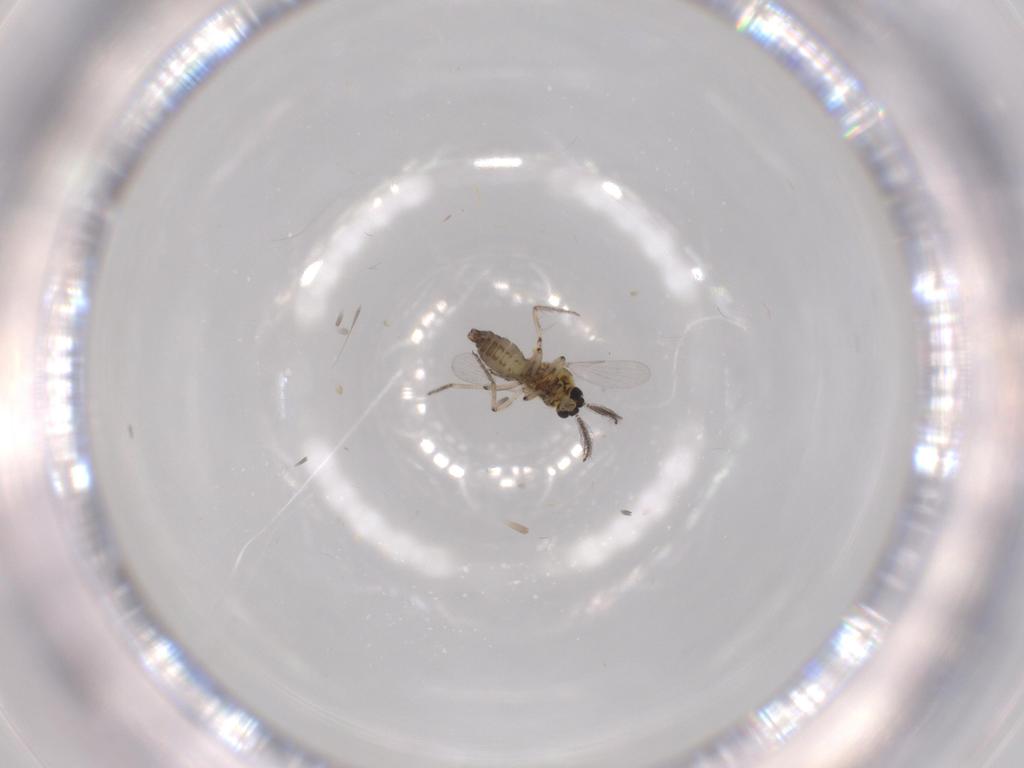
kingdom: Animalia
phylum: Arthropoda
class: Insecta
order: Diptera
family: Ceratopogonidae
